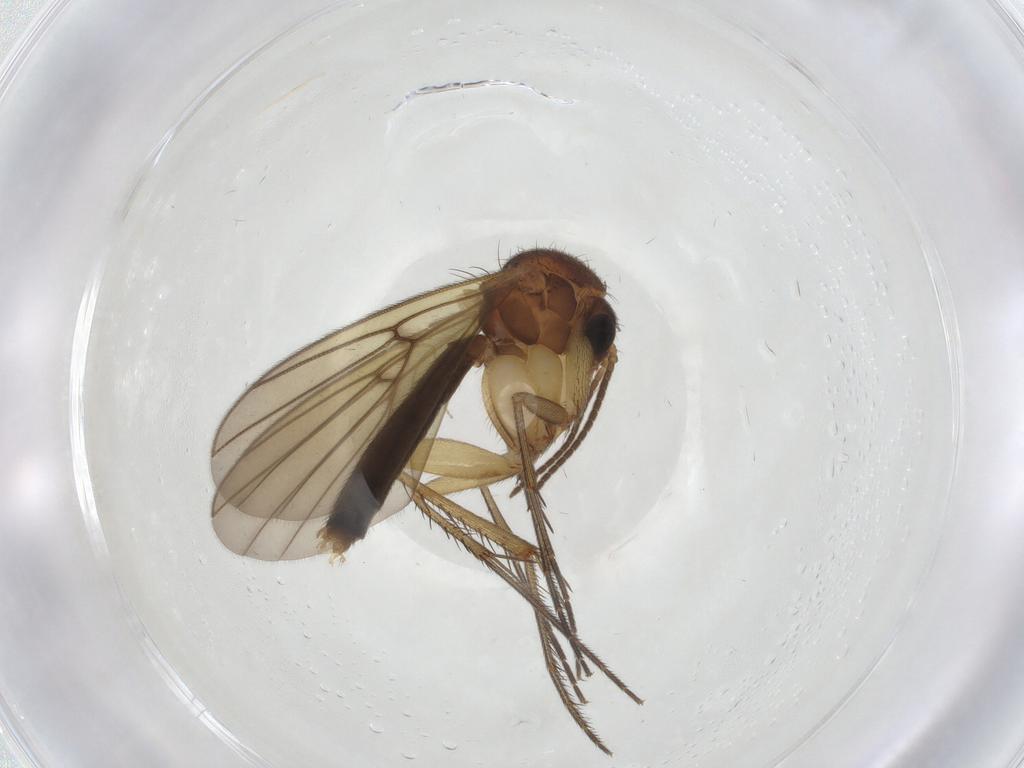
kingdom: Animalia
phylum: Arthropoda
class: Insecta
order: Diptera
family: Mycetophilidae
